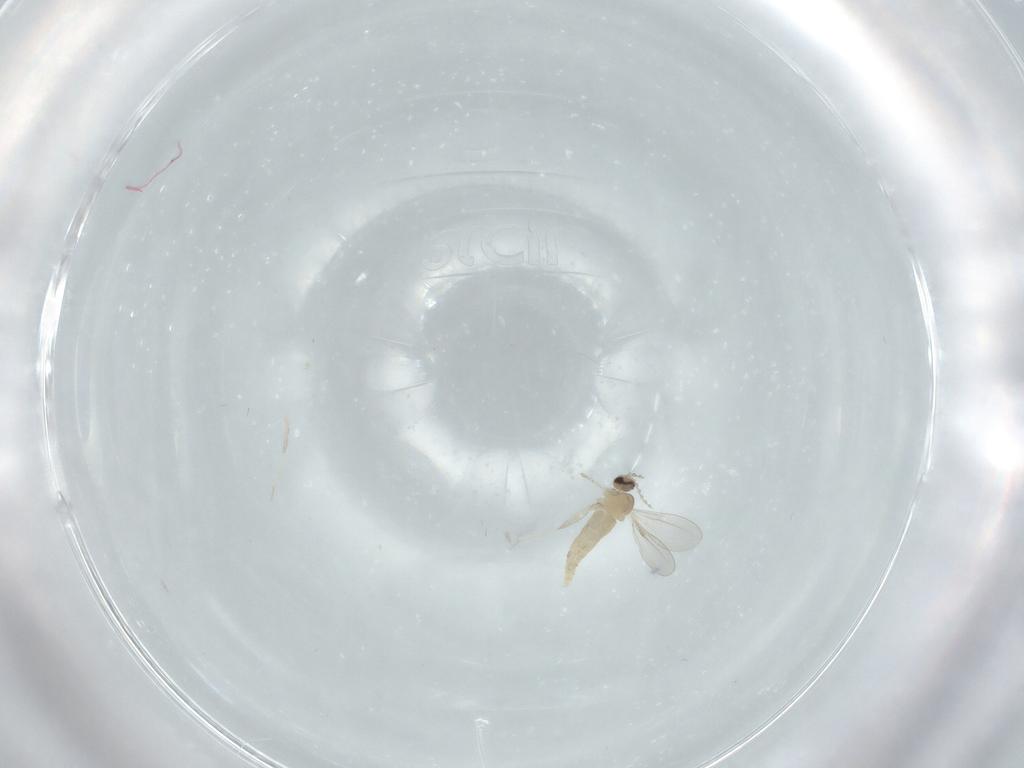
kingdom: Animalia
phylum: Arthropoda
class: Insecta
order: Diptera
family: Cecidomyiidae
